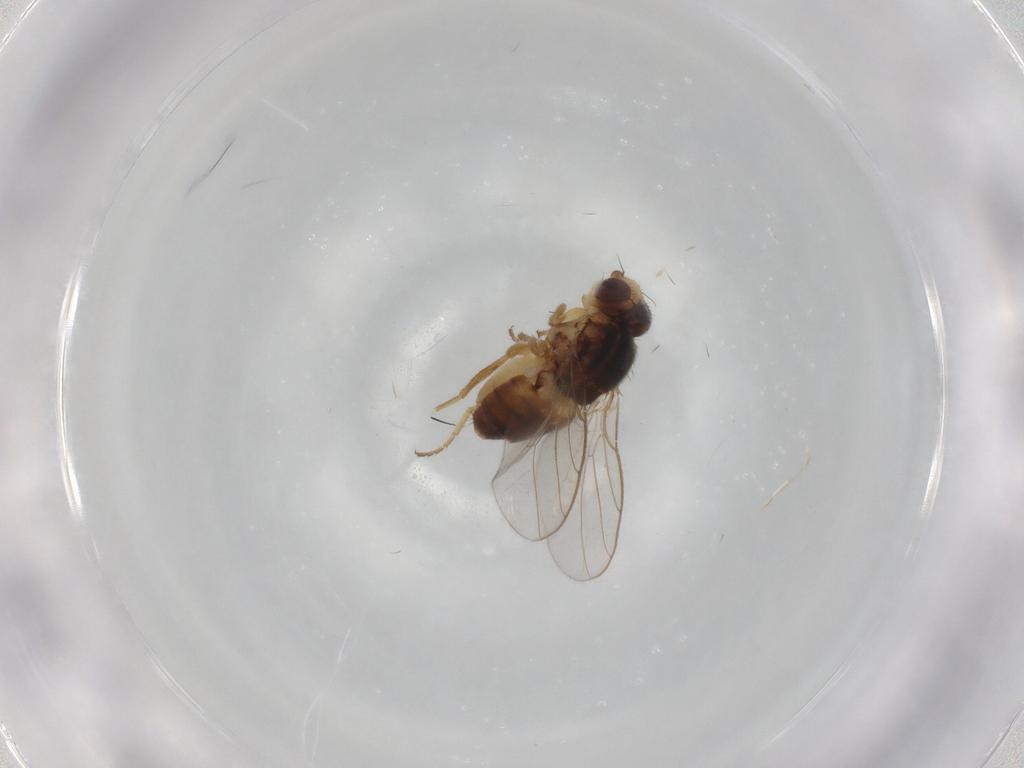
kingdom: Animalia
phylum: Arthropoda
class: Insecta
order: Diptera
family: Chloropidae
